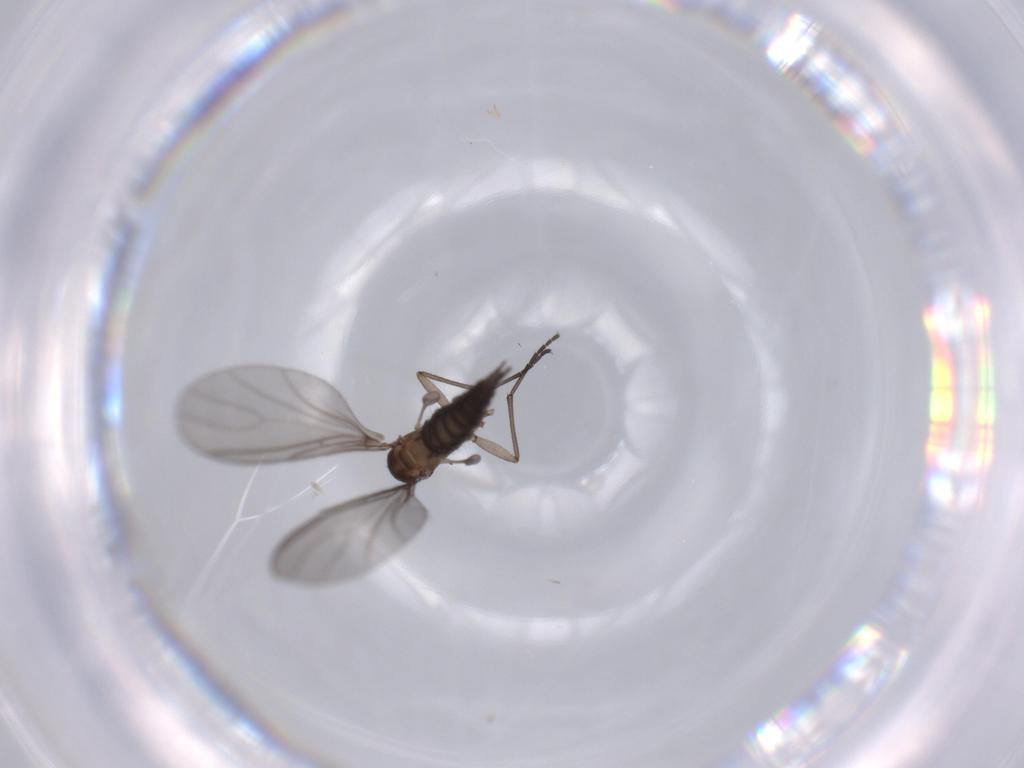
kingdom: Animalia
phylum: Arthropoda
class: Insecta
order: Diptera
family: Sciaridae
